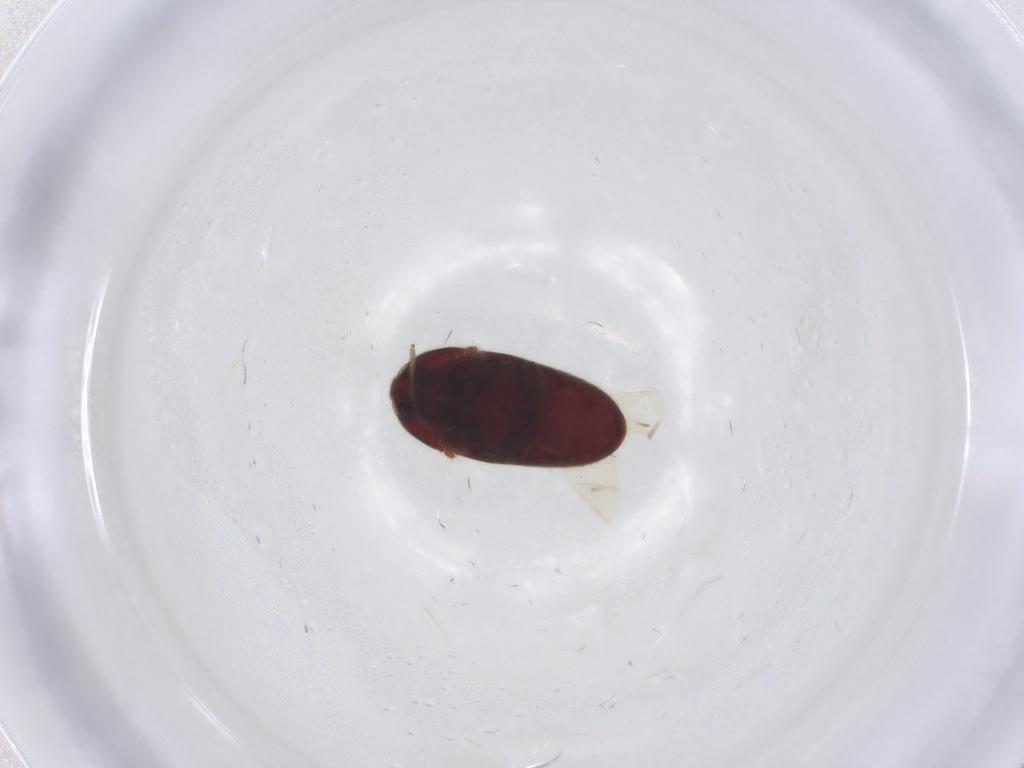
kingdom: Animalia
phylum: Arthropoda
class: Insecta
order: Coleoptera
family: Throscidae
